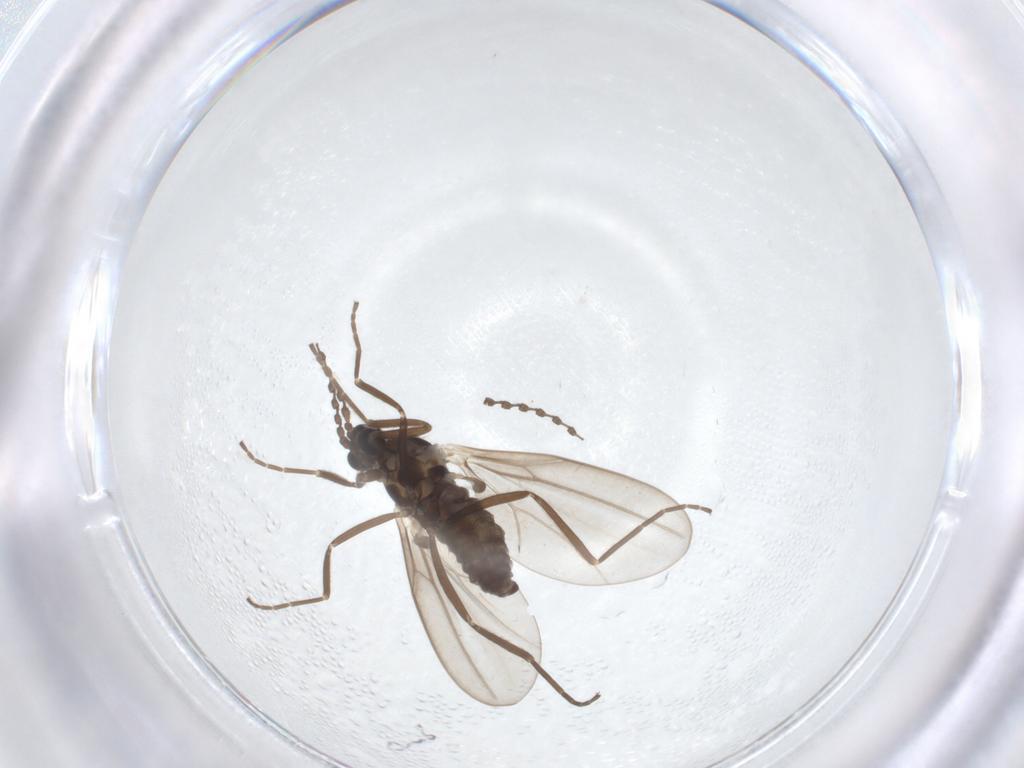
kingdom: Animalia
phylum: Arthropoda
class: Insecta
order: Diptera
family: Cecidomyiidae
